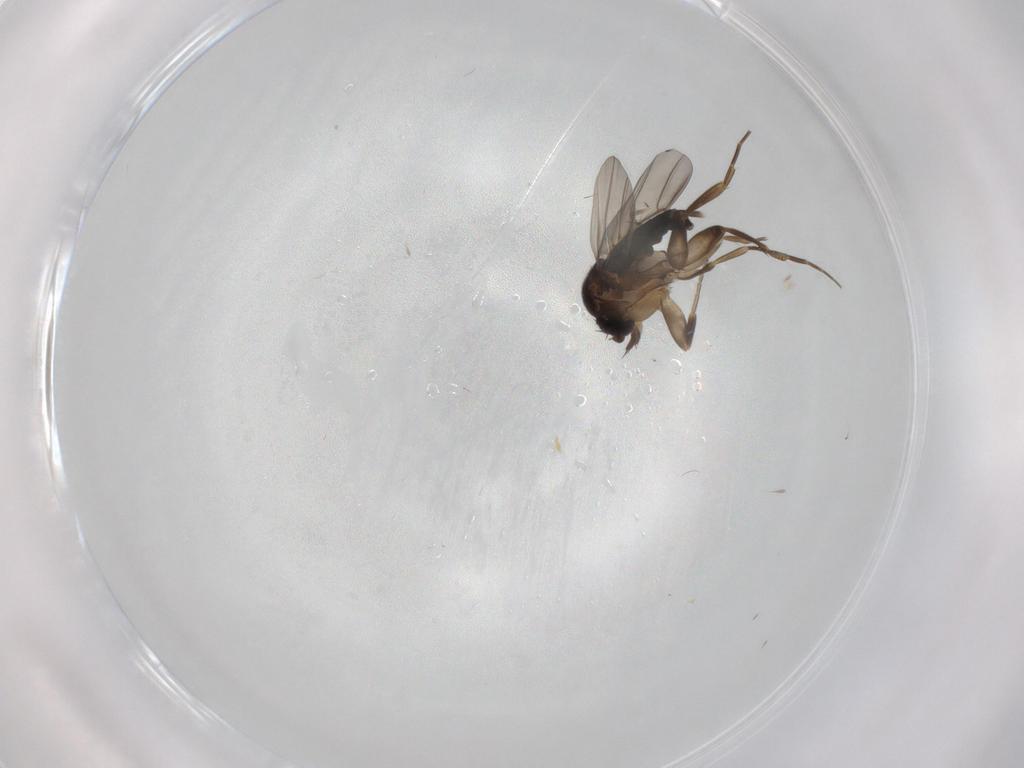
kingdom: Animalia
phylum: Arthropoda
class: Insecta
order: Diptera
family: Phoridae
